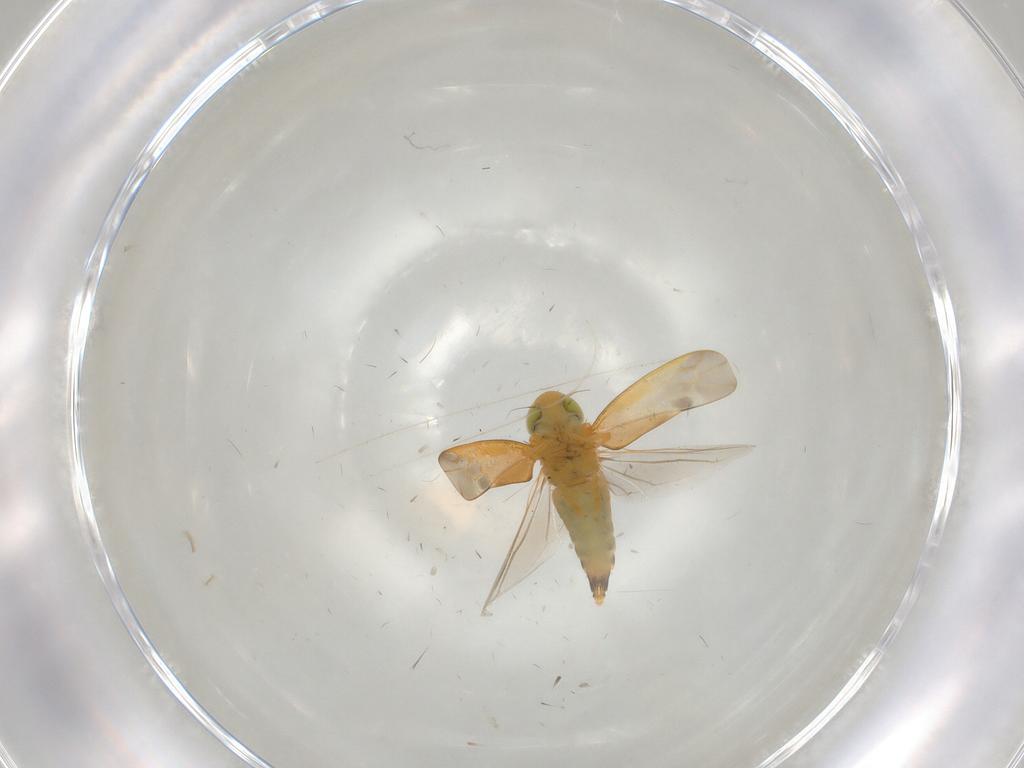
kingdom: Animalia
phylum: Arthropoda
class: Insecta
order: Hemiptera
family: Cicadellidae
